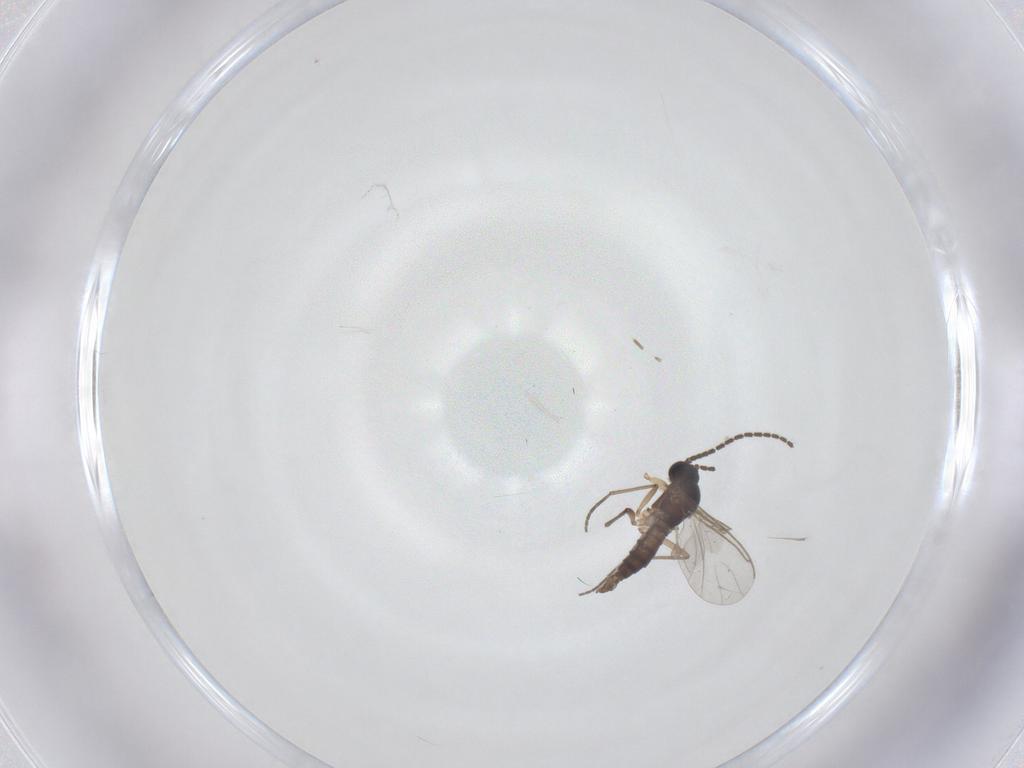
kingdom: Animalia
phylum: Arthropoda
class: Insecta
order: Diptera
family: Sciaridae
